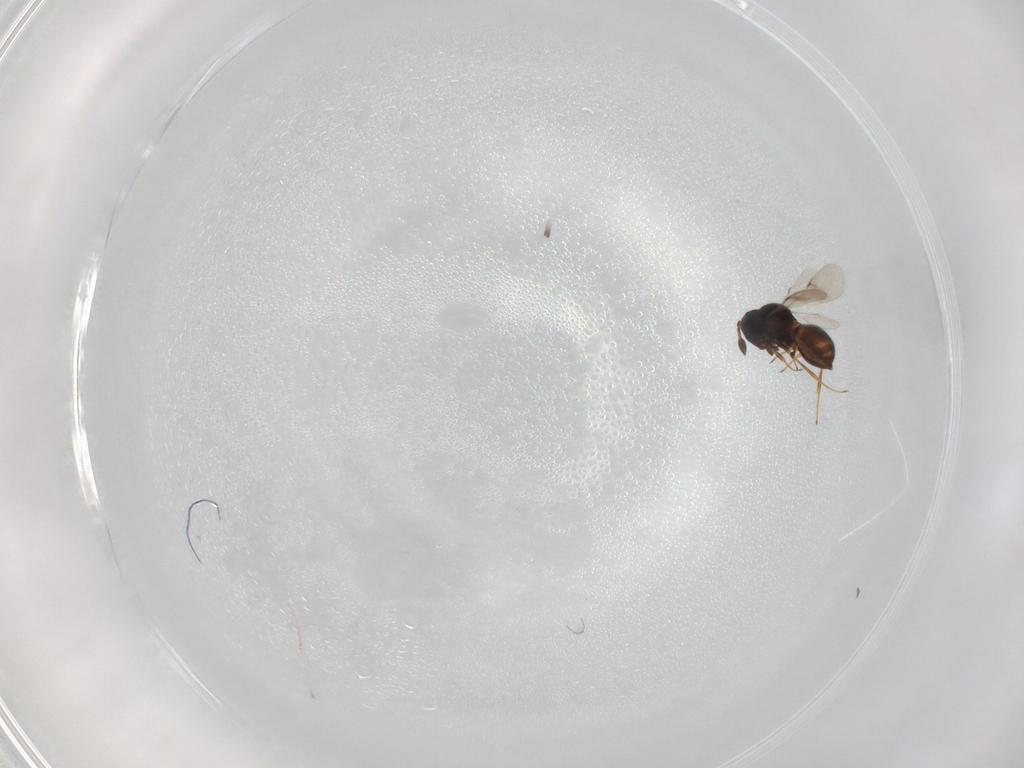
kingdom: Animalia
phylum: Arthropoda
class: Insecta
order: Hymenoptera
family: Scelionidae
